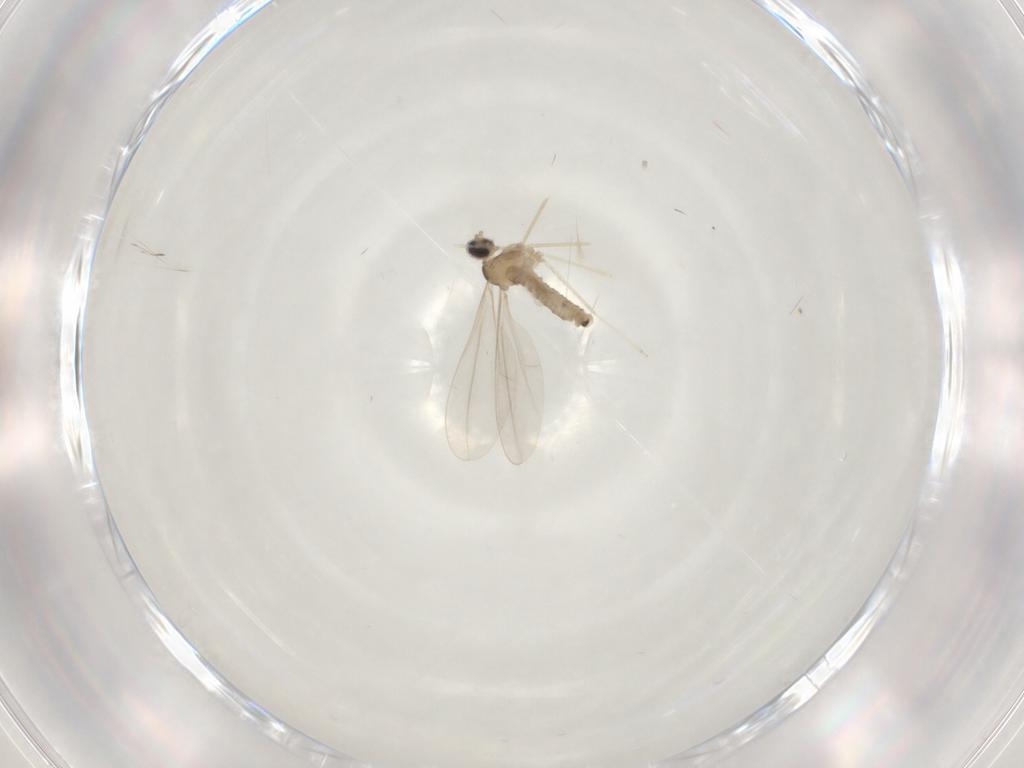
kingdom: Animalia
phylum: Arthropoda
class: Insecta
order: Diptera
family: Cecidomyiidae
